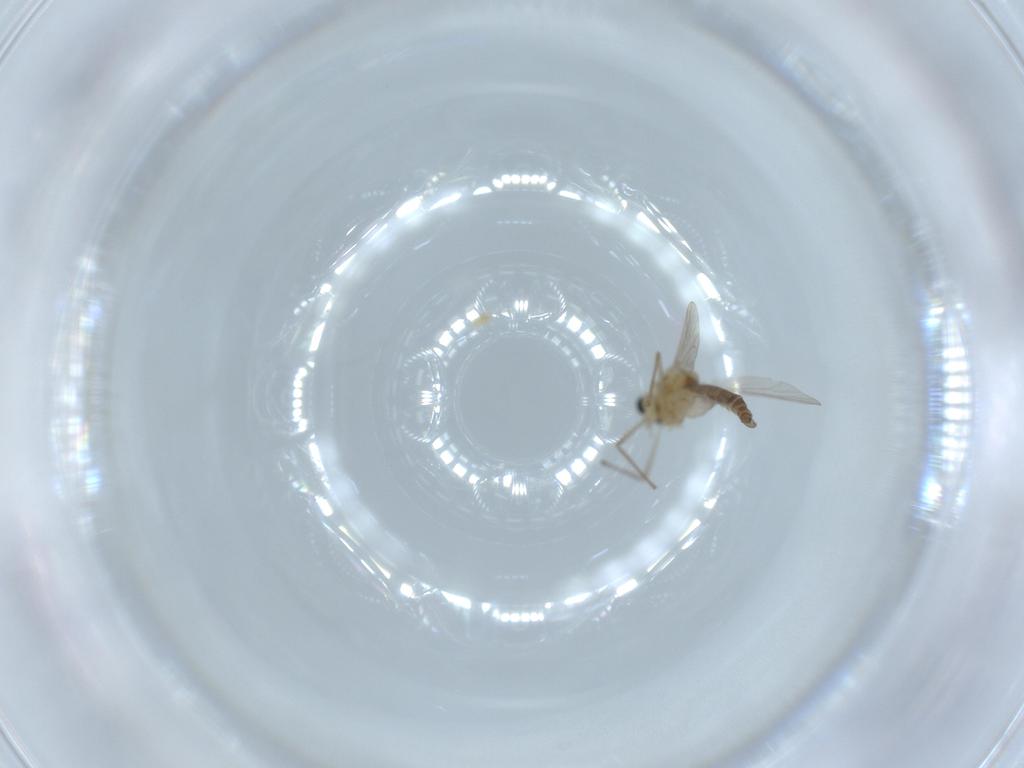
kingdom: Animalia
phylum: Arthropoda
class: Insecta
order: Diptera
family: Chironomidae
